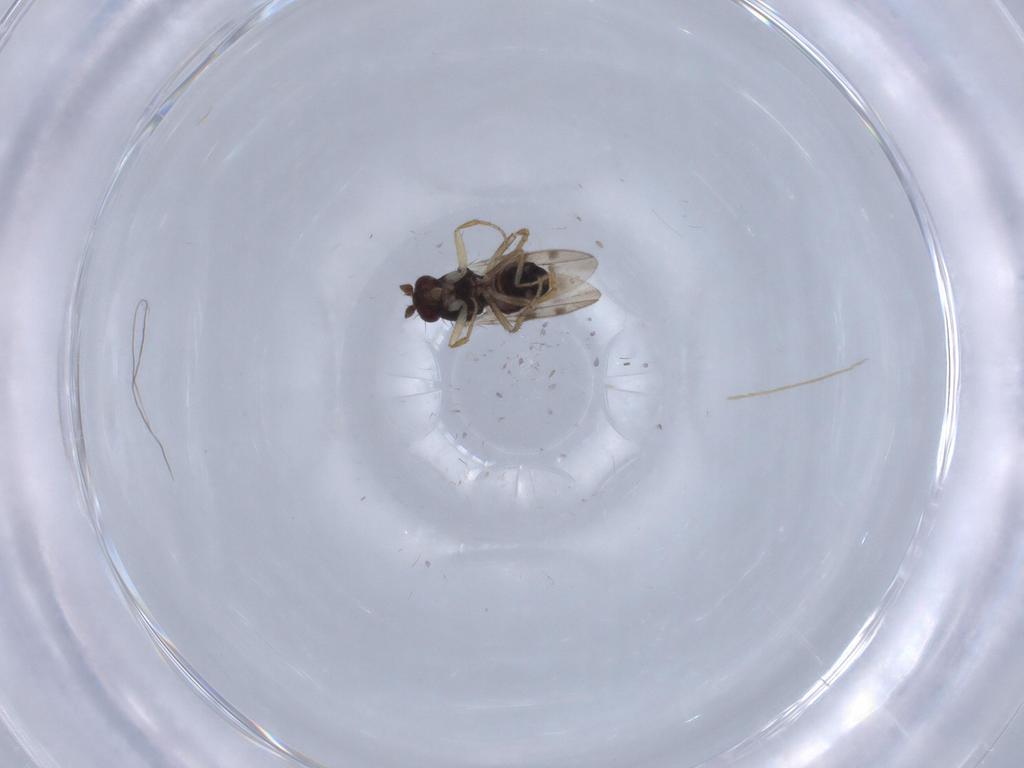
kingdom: Animalia
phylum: Arthropoda
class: Insecta
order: Diptera
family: Sphaeroceridae
